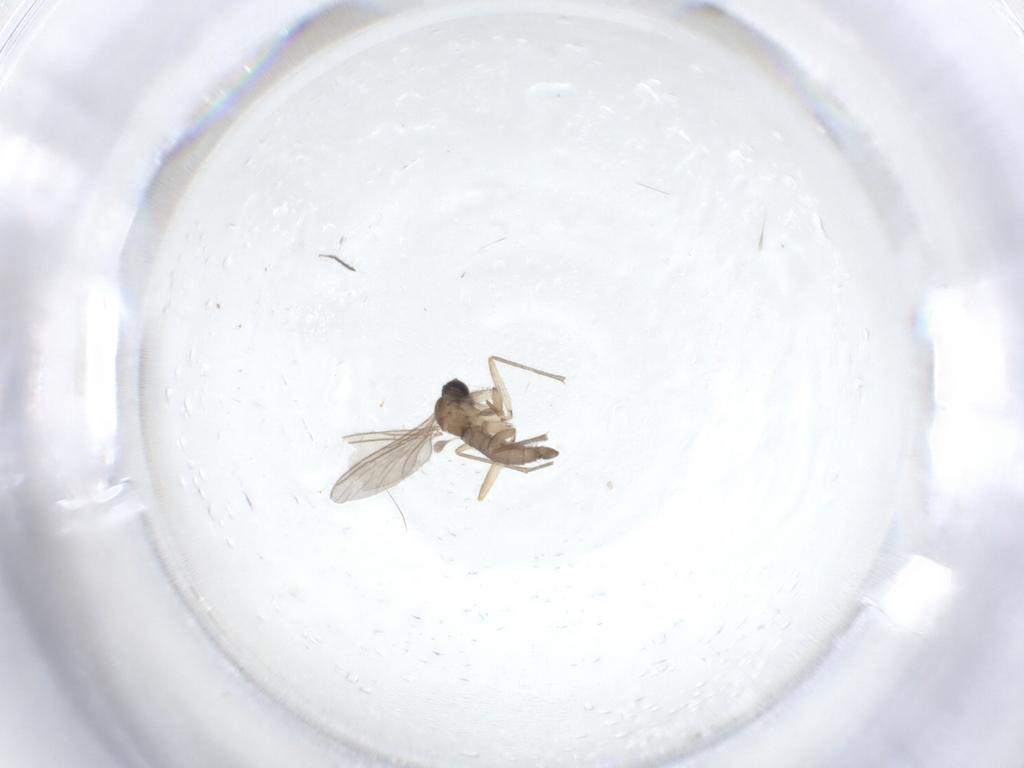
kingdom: Animalia
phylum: Arthropoda
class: Insecta
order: Diptera
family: Sciaridae
